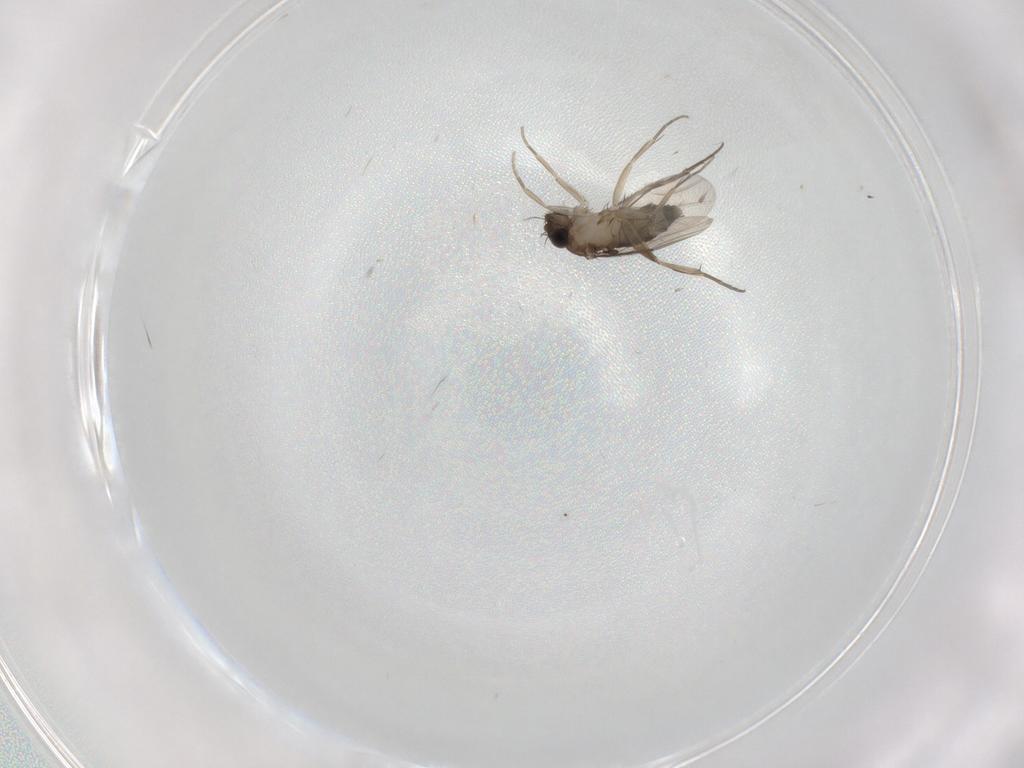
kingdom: Animalia
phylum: Arthropoda
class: Insecta
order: Diptera
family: Phoridae
